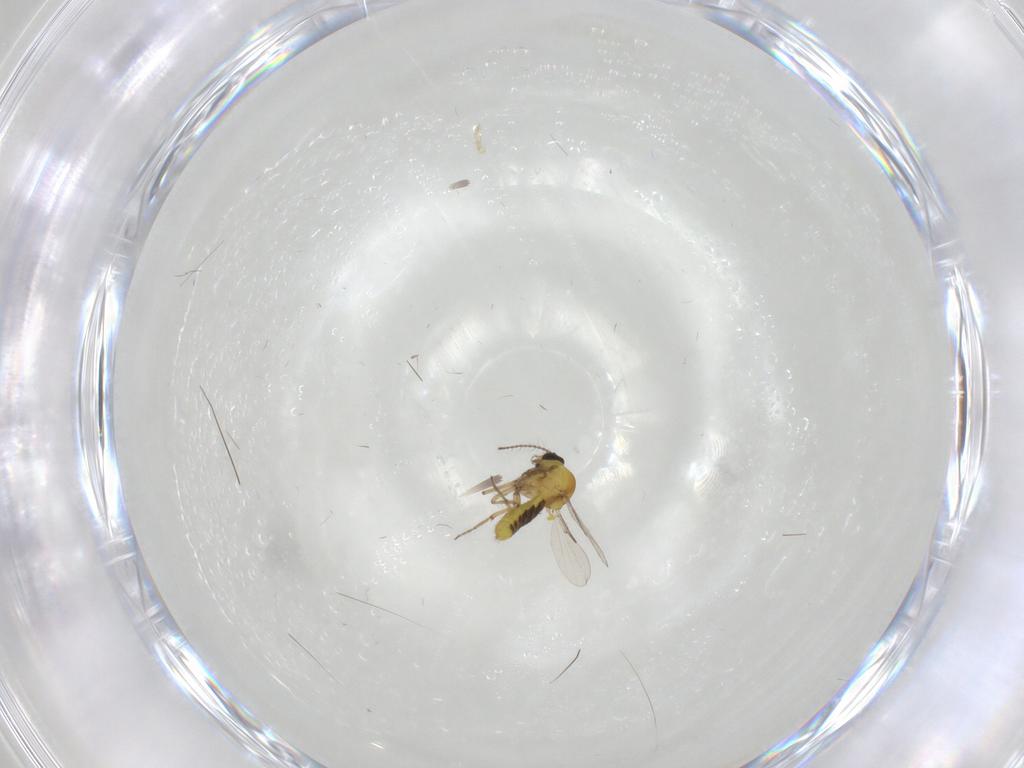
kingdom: Animalia
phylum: Arthropoda
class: Insecta
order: Diptera
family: Ceratopogonidae
